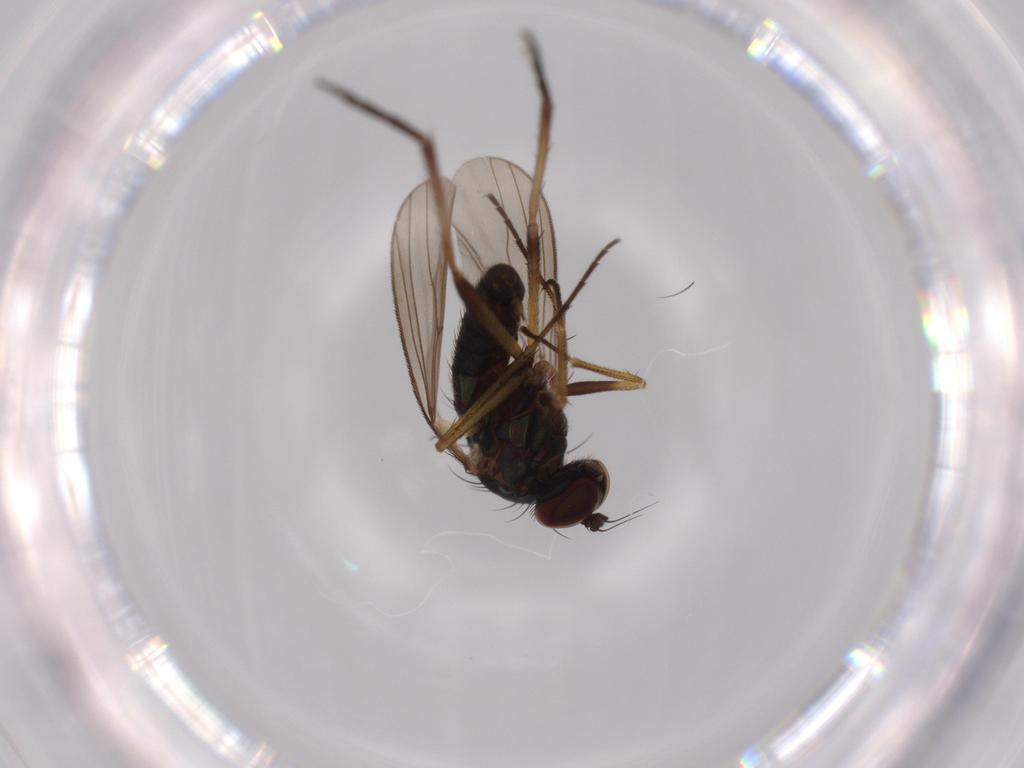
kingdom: Animalia
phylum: Arthropoda
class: Insecta
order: Diptera
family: Dolichopodidae
